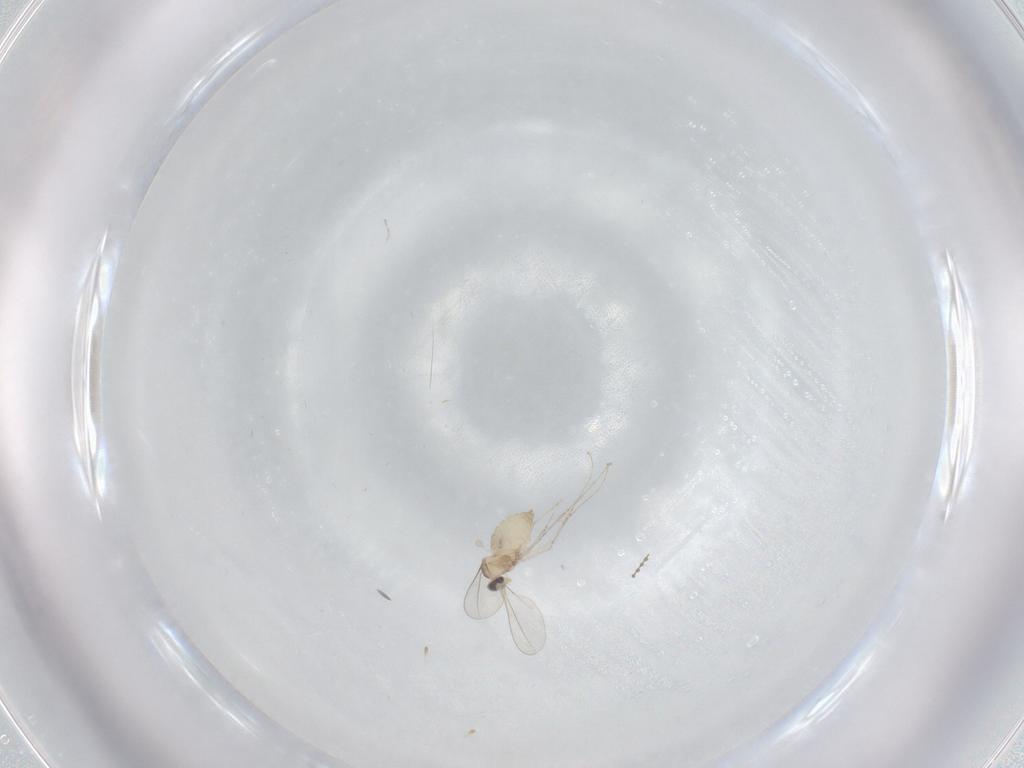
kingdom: Animalia
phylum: Arthropoda
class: Insecta
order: Diptera
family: Cecidomyiidae
